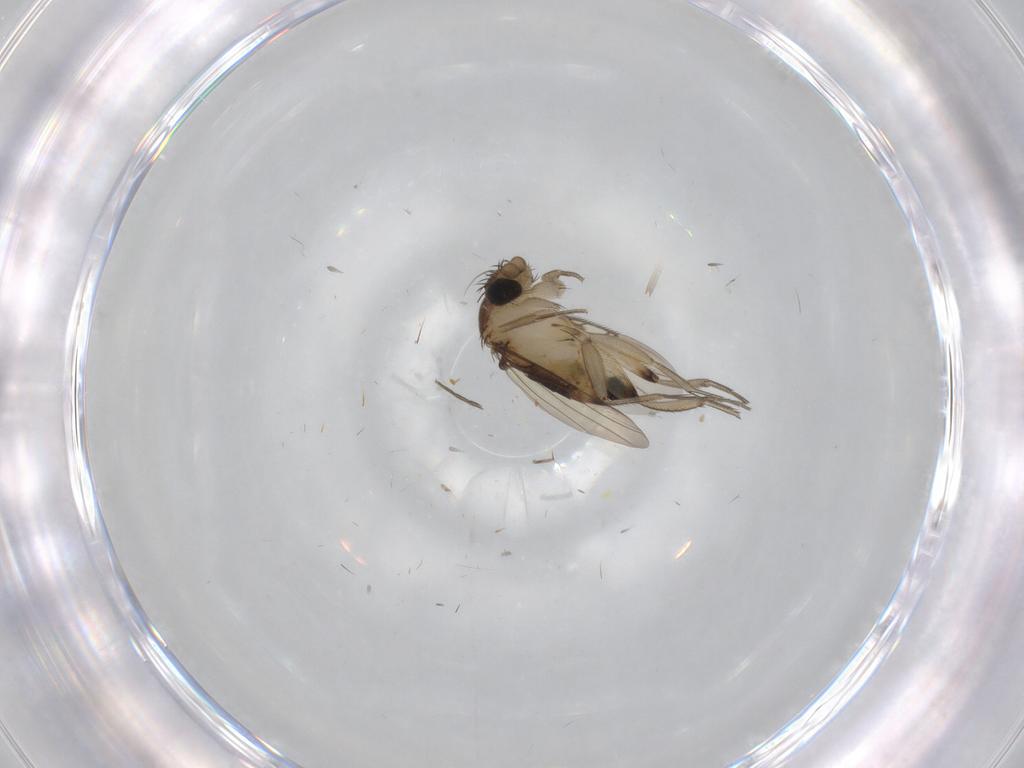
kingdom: Animalia
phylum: Arthropoda
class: Insecta
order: Diptera
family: Phoridae
